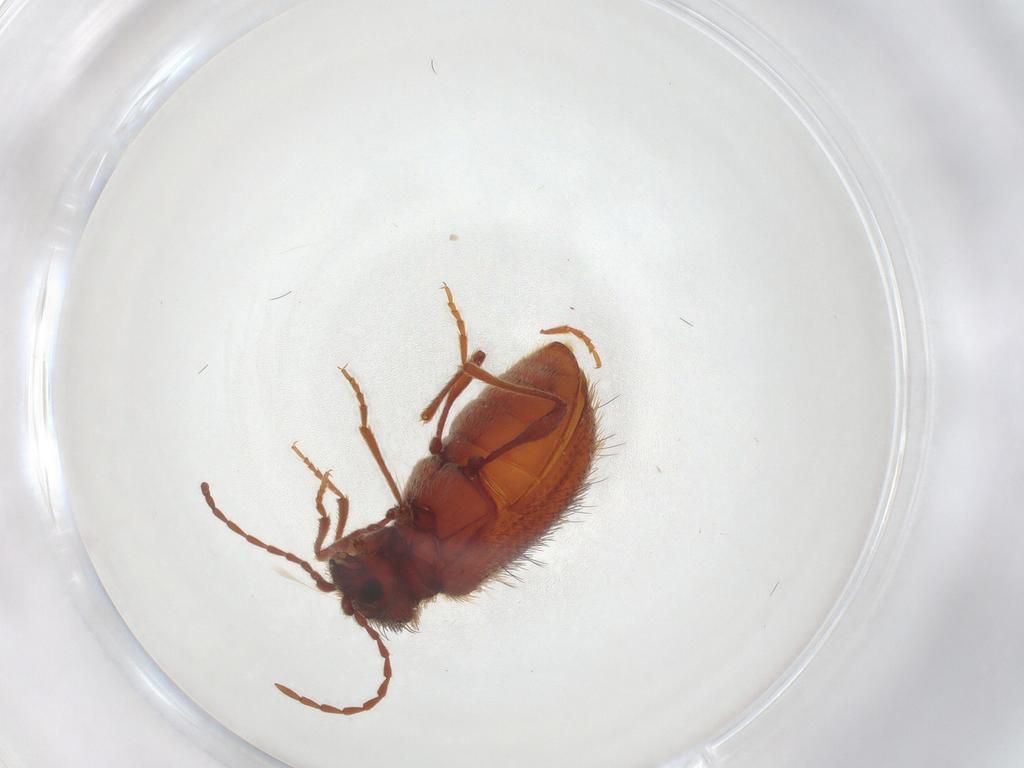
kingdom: Animalia
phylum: Arthropoda
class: Insecta
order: Coleoptera
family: Ptinidae
